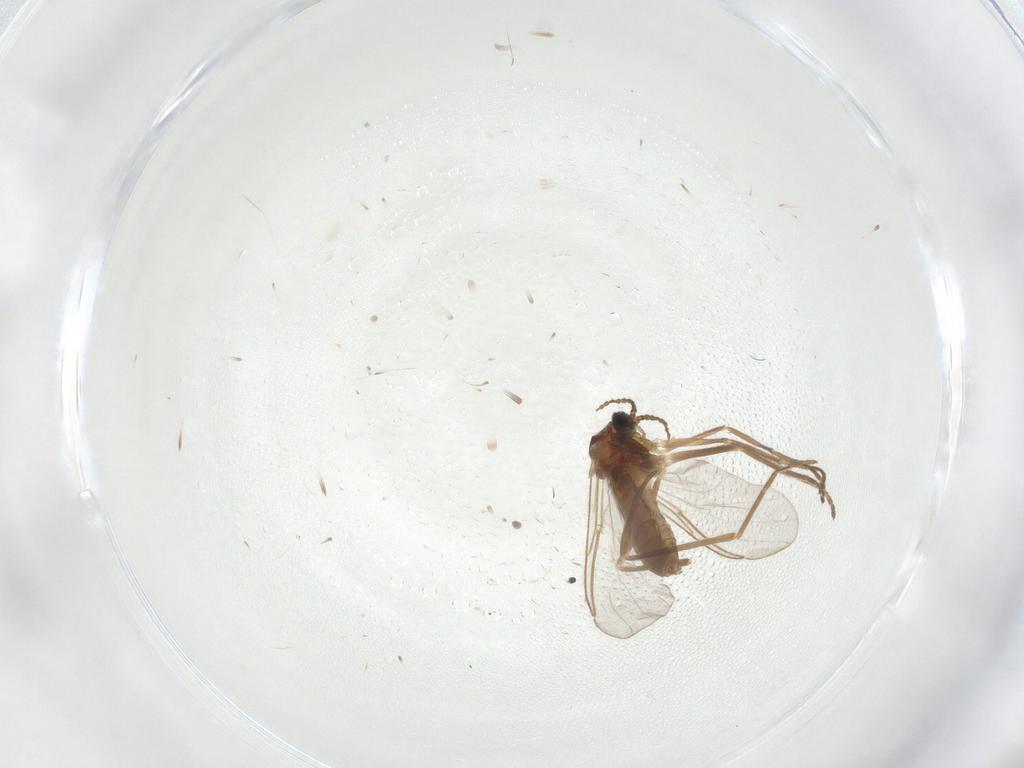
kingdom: Animalia
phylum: Arthropoda
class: Insecta
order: Diptera
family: Cecidomyiidae
